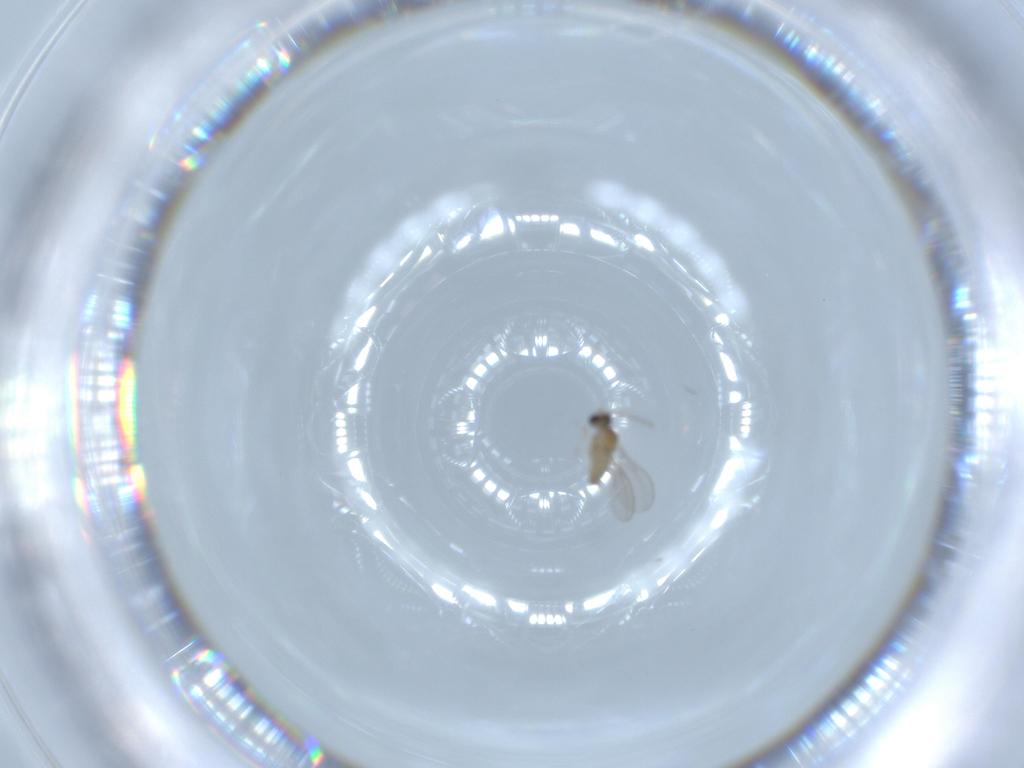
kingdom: Animalia
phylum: Arthropoda
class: Insecta
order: Diptera
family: Cecidomyiidae
